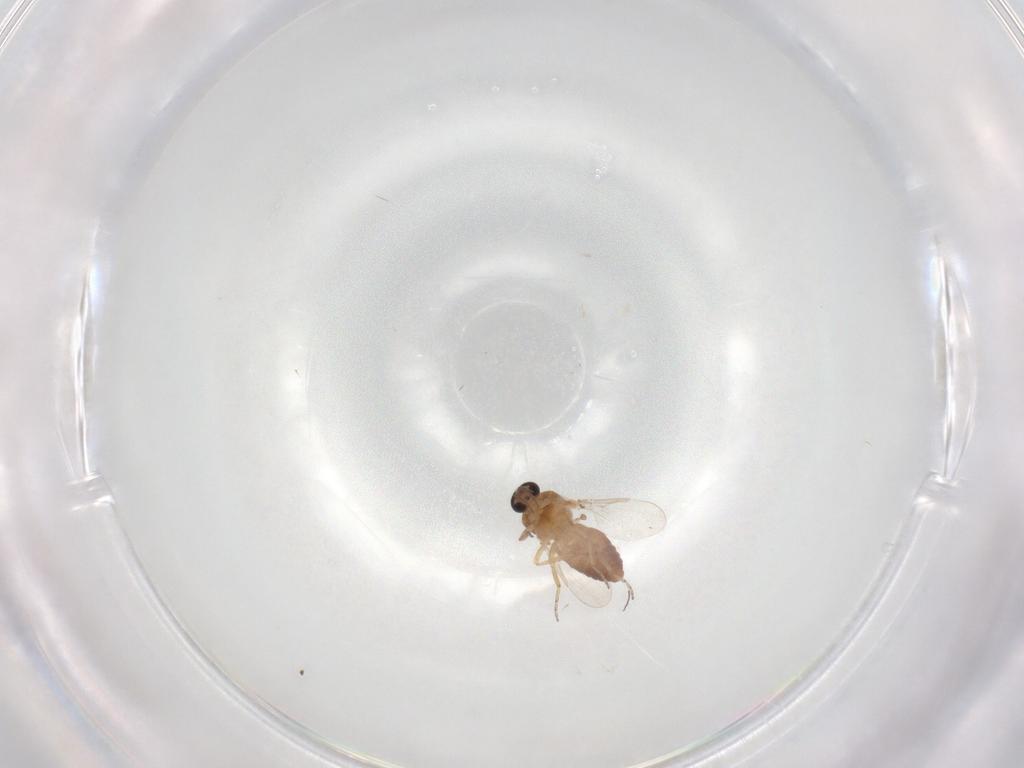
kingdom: Animalia
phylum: Arthropoda
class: Insecta
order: Diptera
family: Ceratopogonidae
